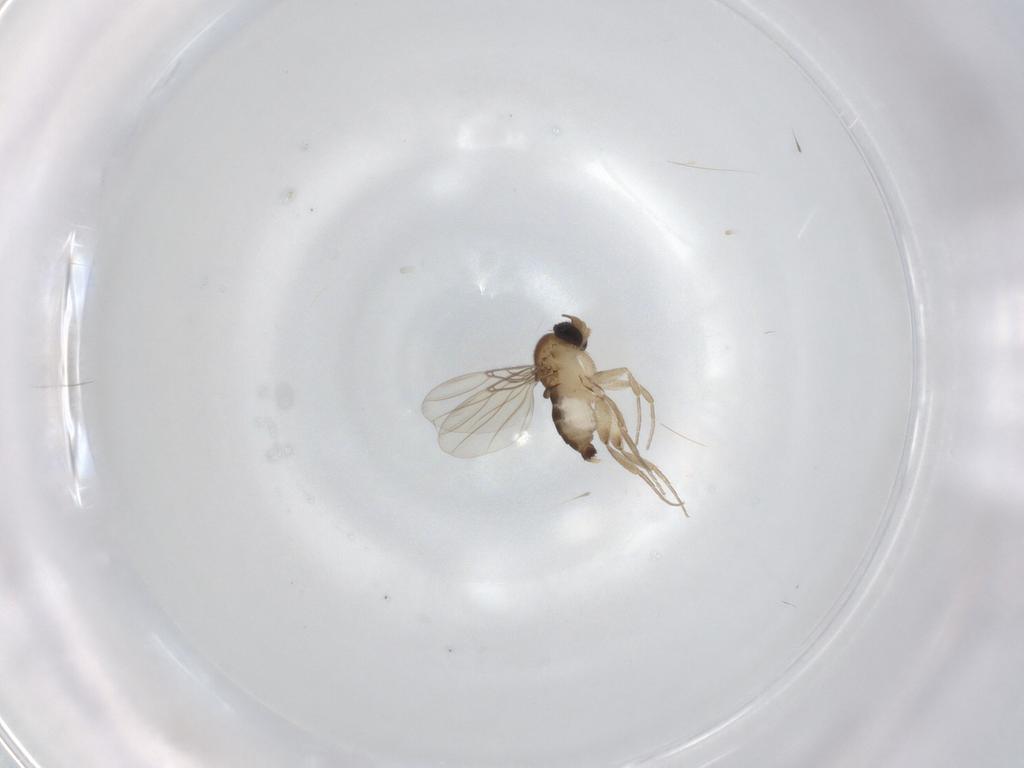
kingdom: Animalia
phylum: Arthropoda
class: Insecta
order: Diptera
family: Phoridae
